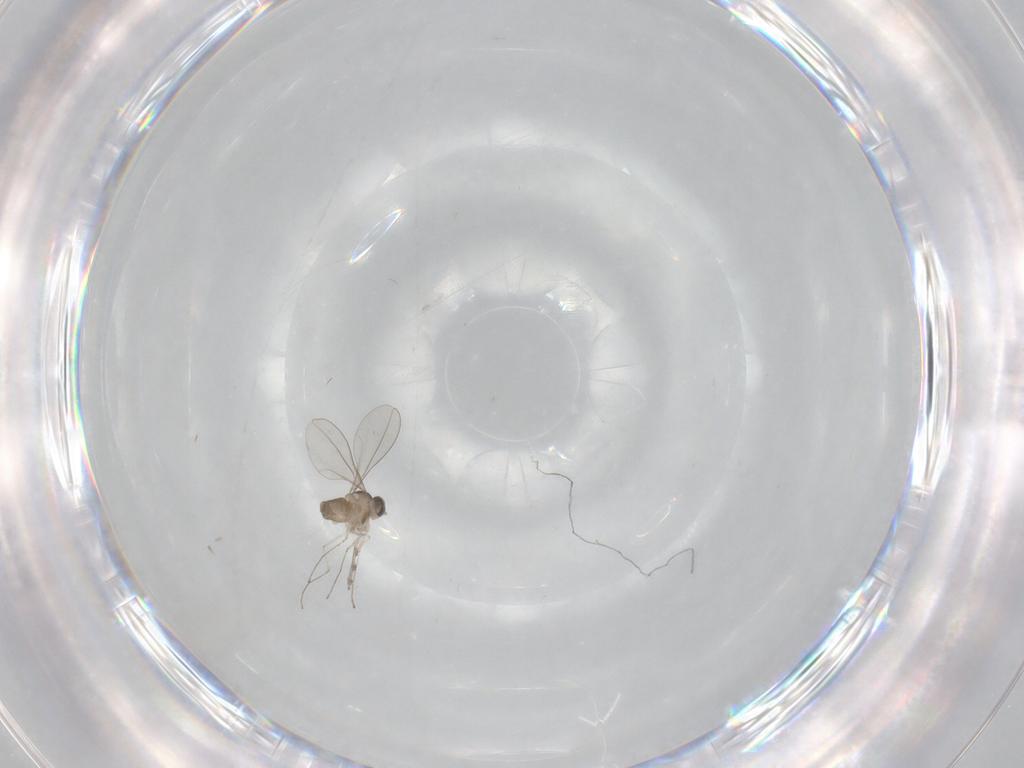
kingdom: Animalia
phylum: Arthropoda
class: Insecta
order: Diptera
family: Cecidomyiidae
